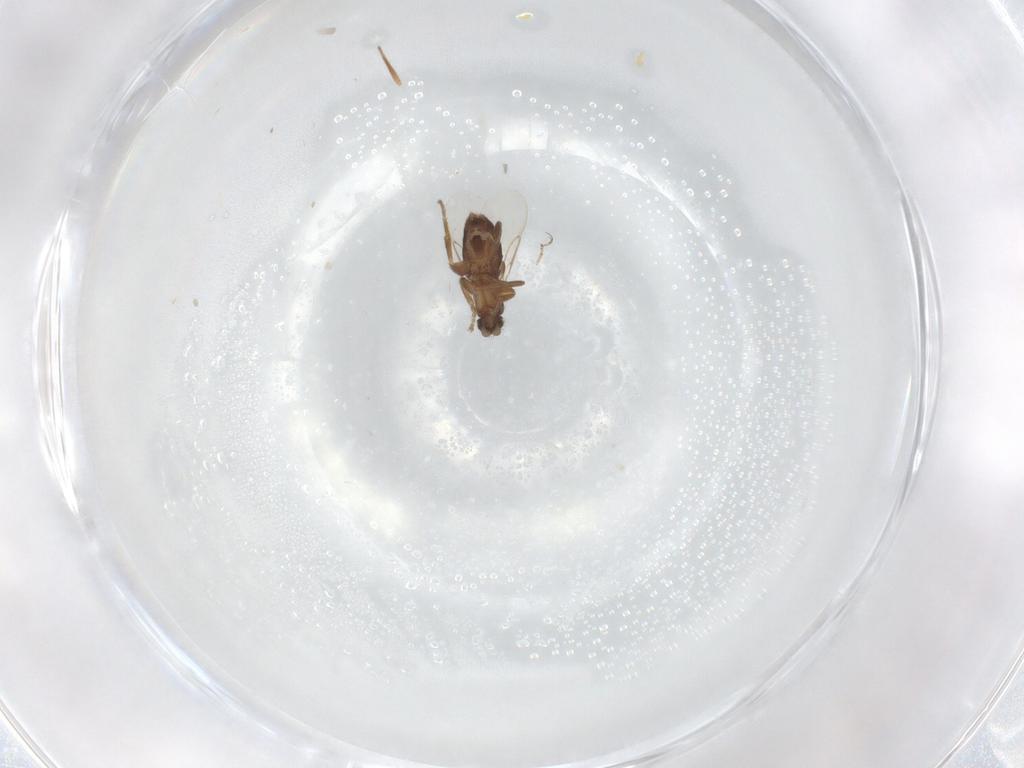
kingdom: Animalia
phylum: Arthropoda
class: Insecta
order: Diptera
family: Phoridae
